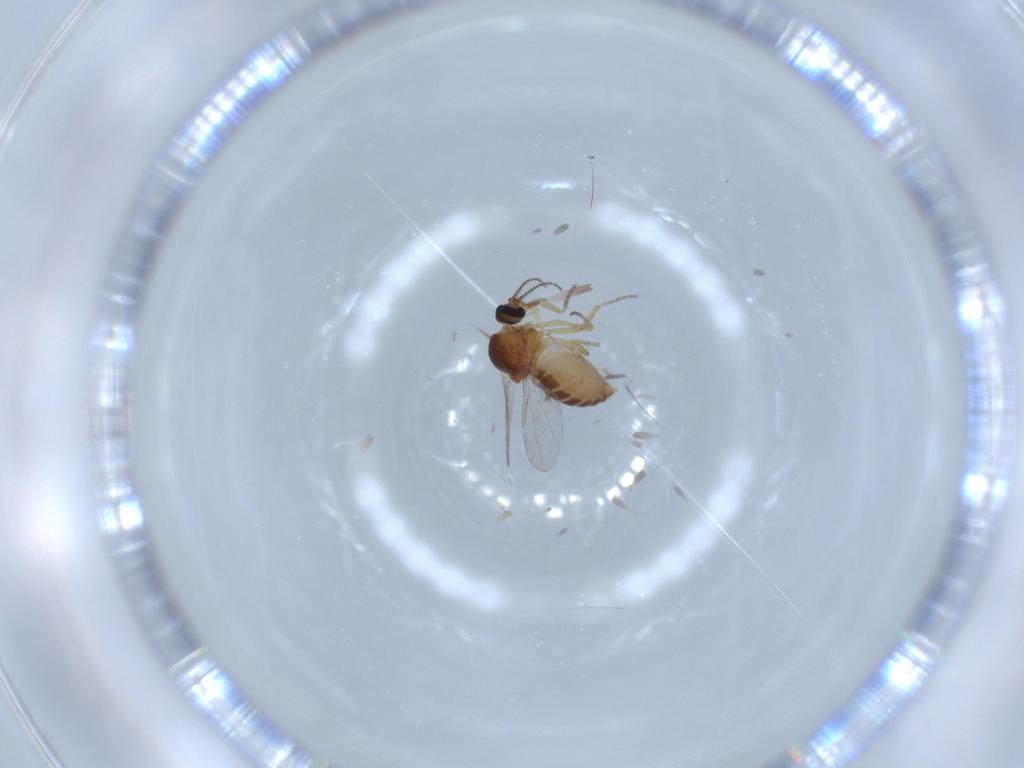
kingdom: Animalia
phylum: Arthropoda
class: Insecta
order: Diptera
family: Ceratopogonidae
